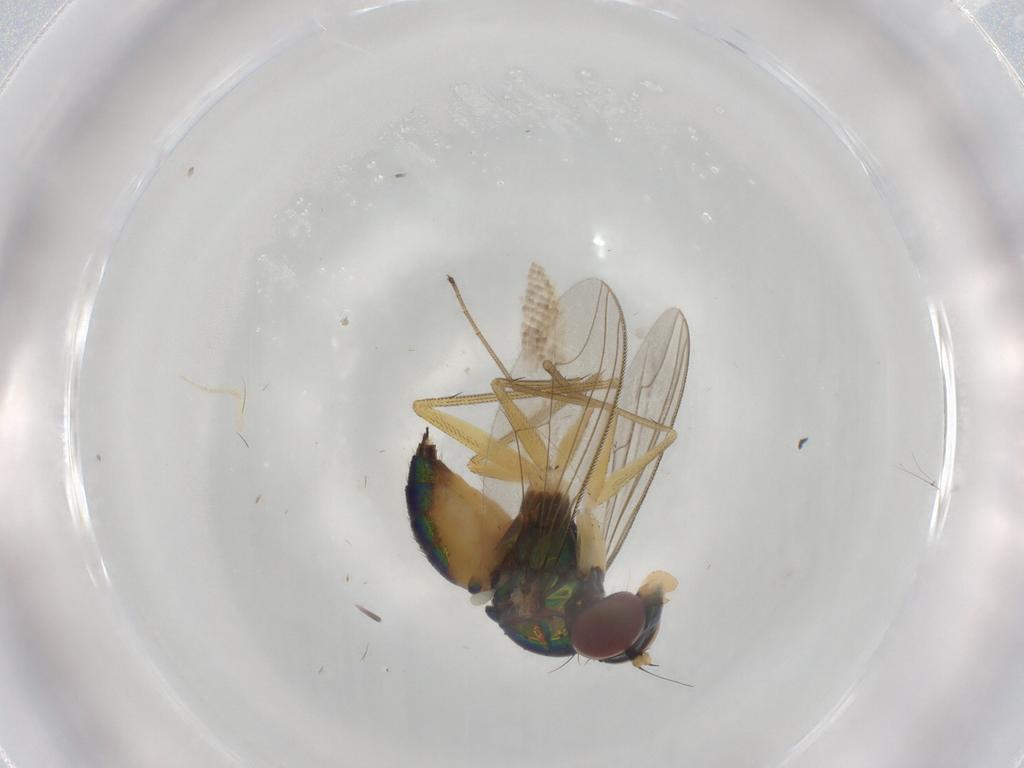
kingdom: Animalia
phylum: Arthropoda
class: Insecta
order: Diptera
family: Dolichopodidae
